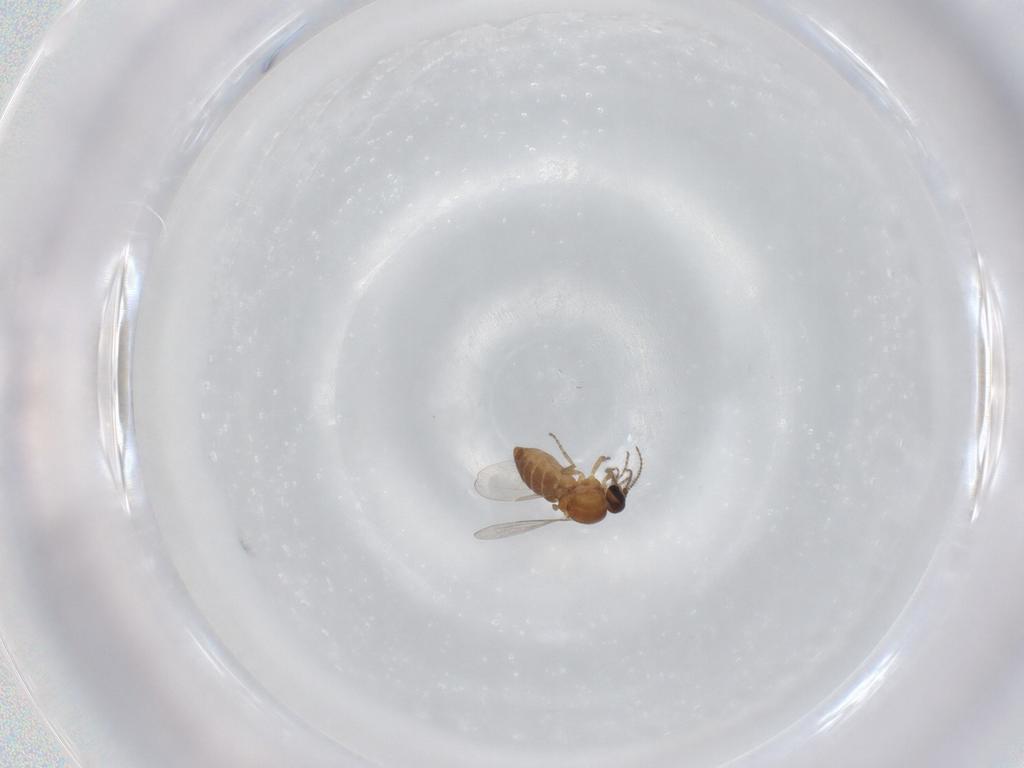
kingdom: Animalia
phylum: Arthropoda
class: Insecta
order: Diptera
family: Ceratopogonidae
